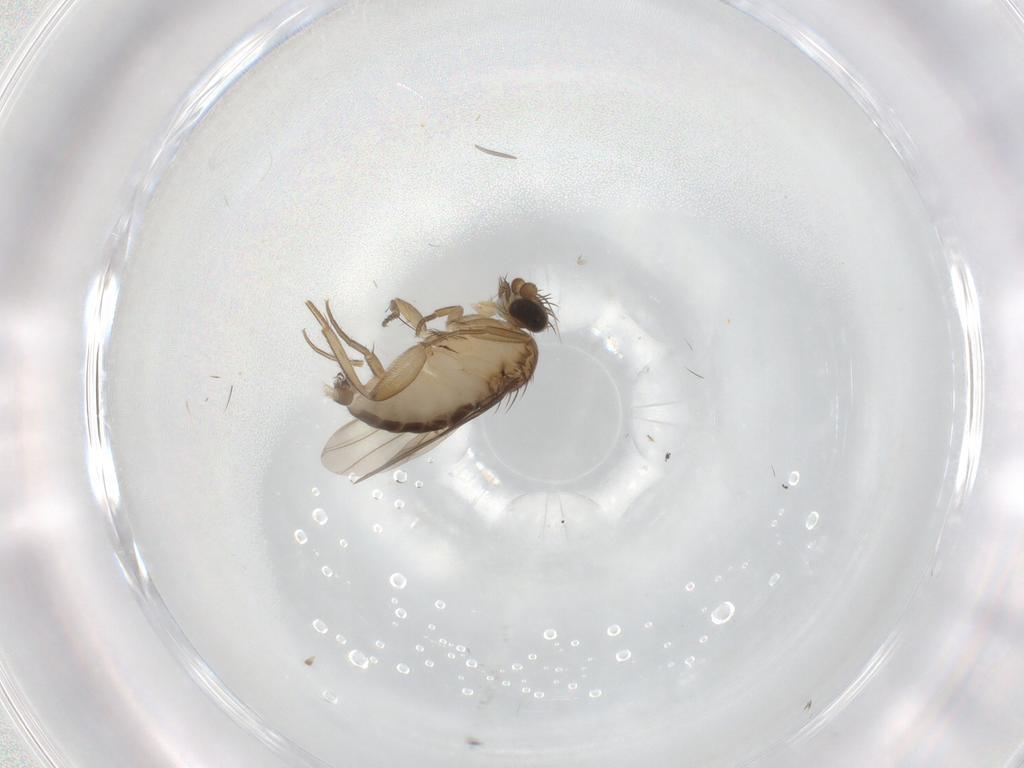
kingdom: Animalia
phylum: Arthropoda
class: Insecta
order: Diptera
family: Phoridae
